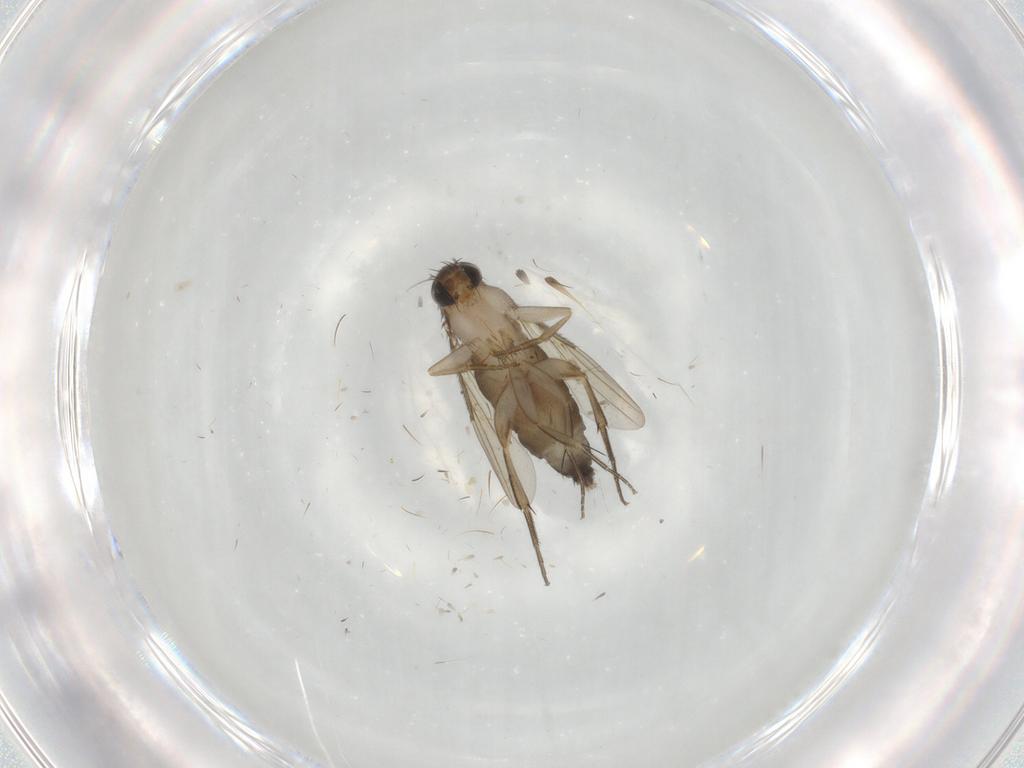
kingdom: Animalia
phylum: Arthropoda
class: Insecta
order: Diptera
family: Phoridae
